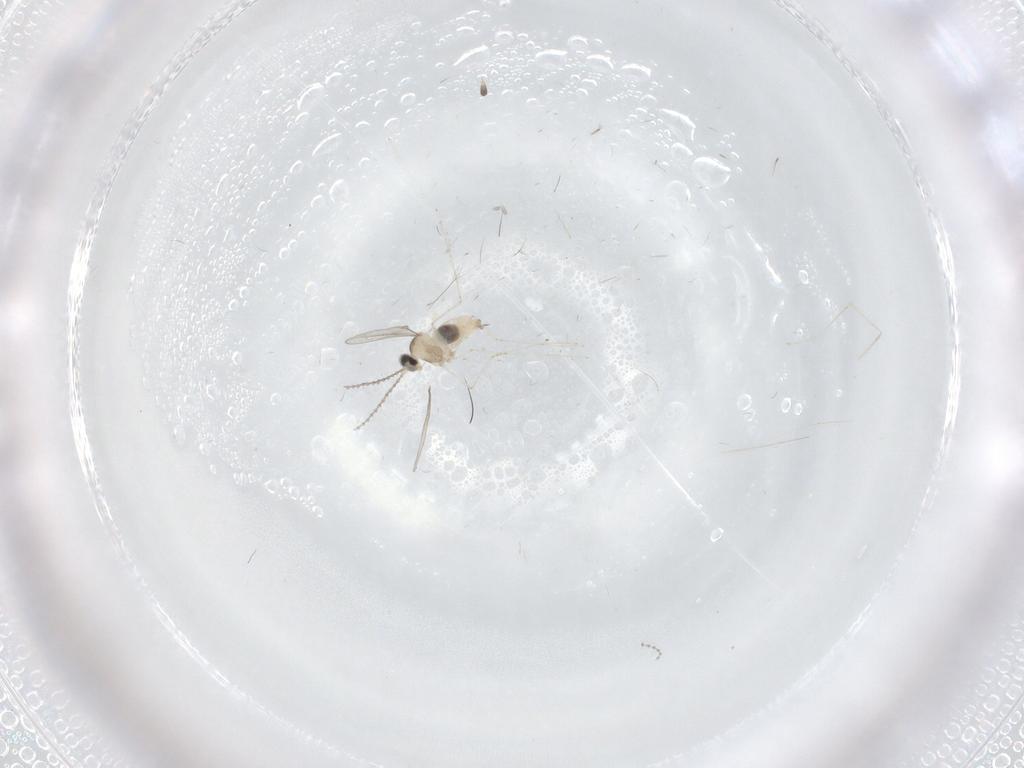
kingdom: Animalia
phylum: Arthropoda
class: Insecta
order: Diptera
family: Cecidomyiidae
